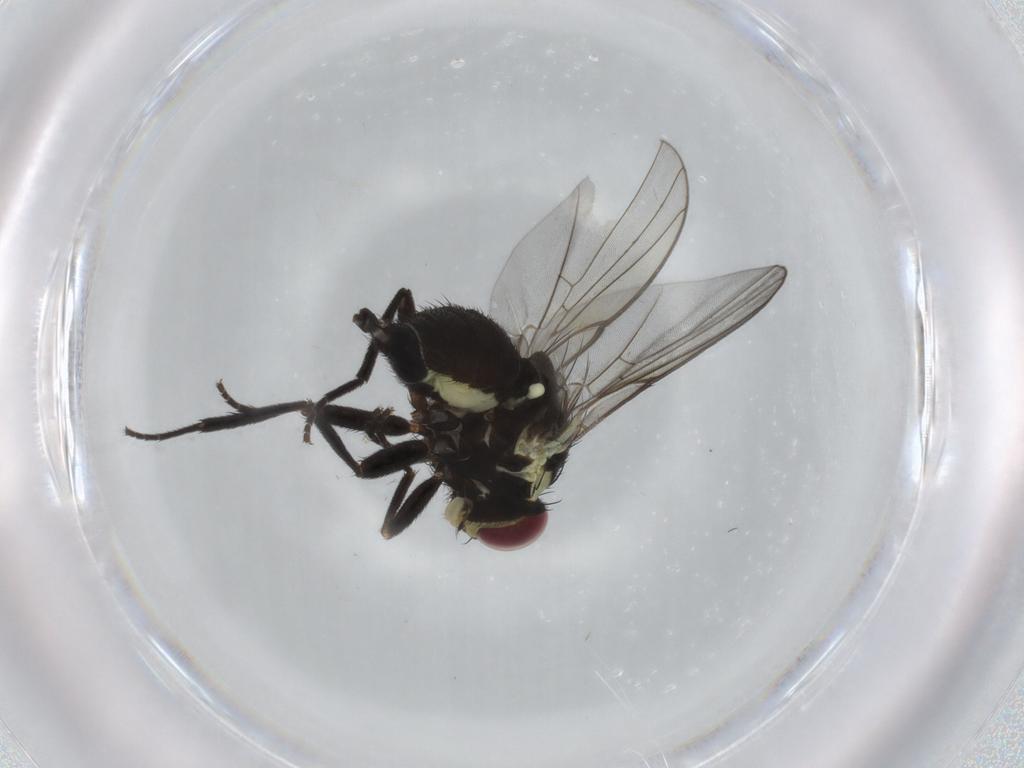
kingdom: Animalia
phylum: Arthropoda
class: Insecta
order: Diptera
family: Agromyzidae
